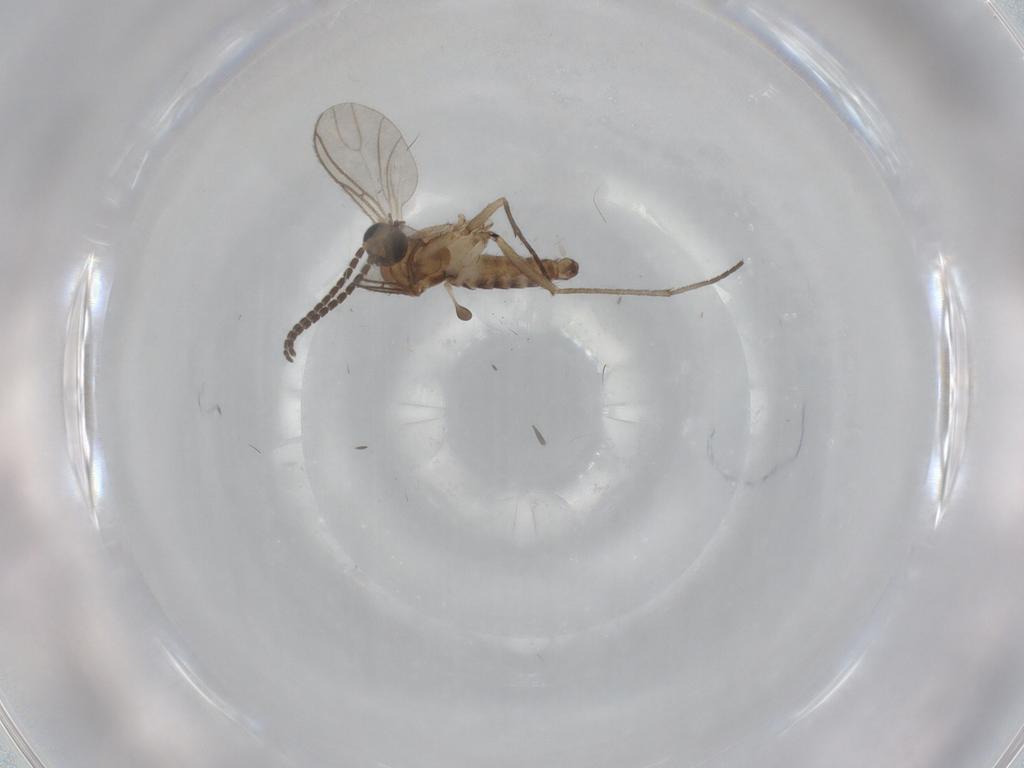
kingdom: Animalia
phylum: Arthropoda
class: Insecta
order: Diptera
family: Sciaridae
